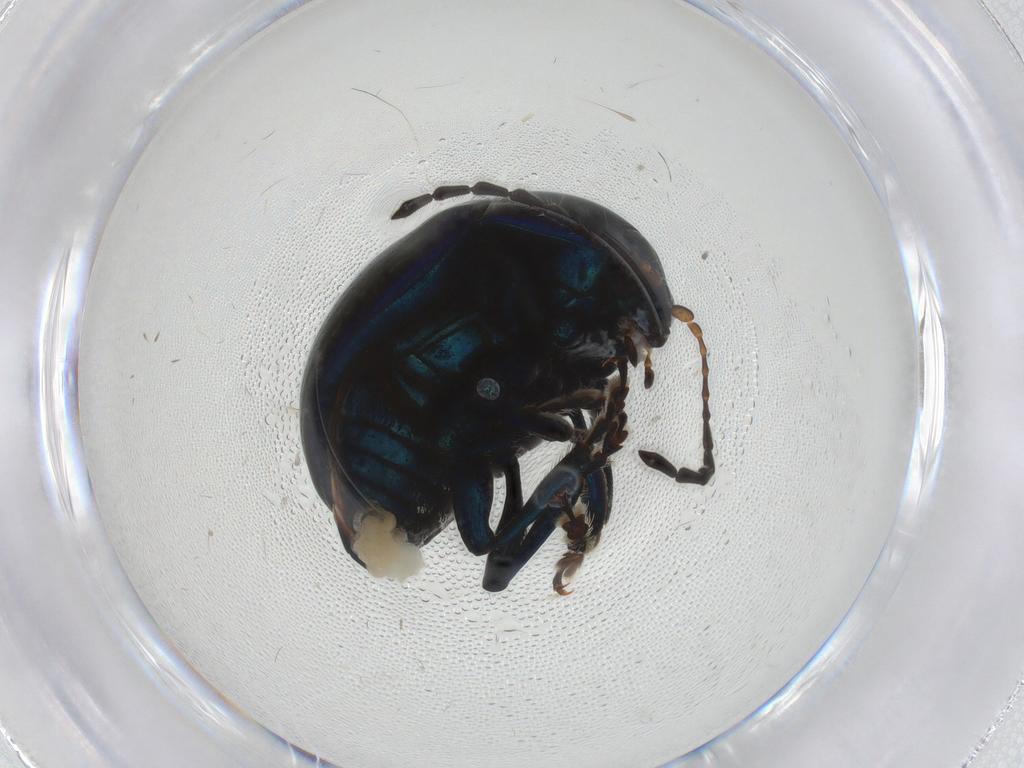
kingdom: Animalia
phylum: Arthropoda
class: Insecta
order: Coleoptera
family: Chrysomelidae
